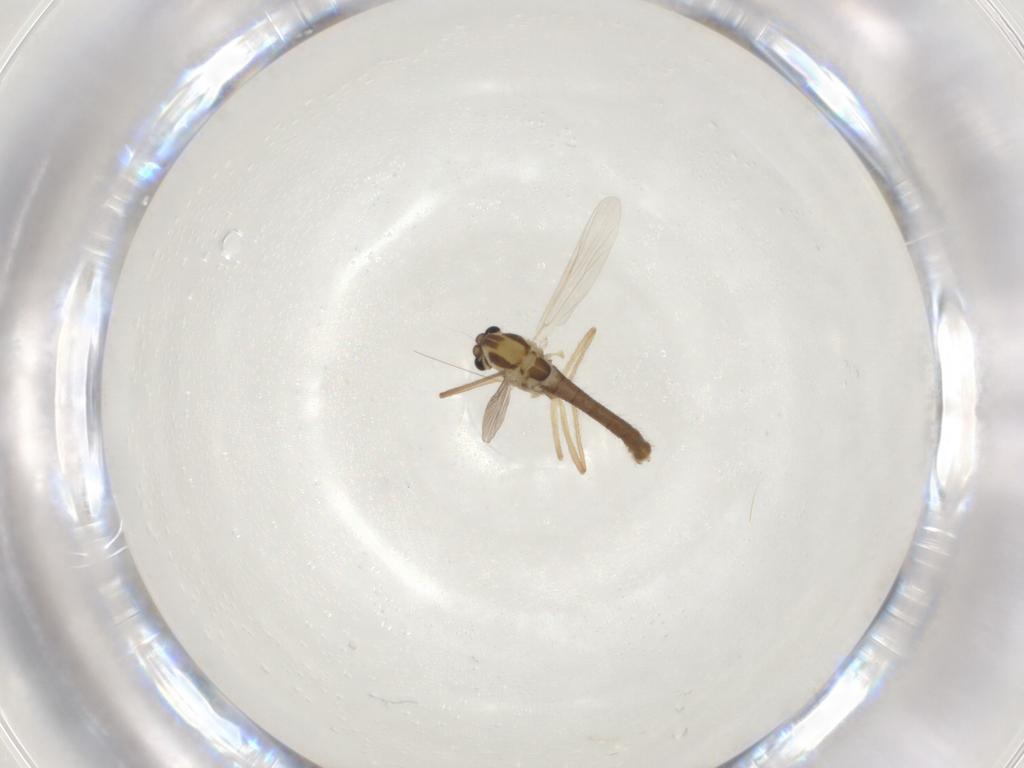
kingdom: Animalia
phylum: Arthropoda
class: Insecta
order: Diptera
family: Chironomidae
